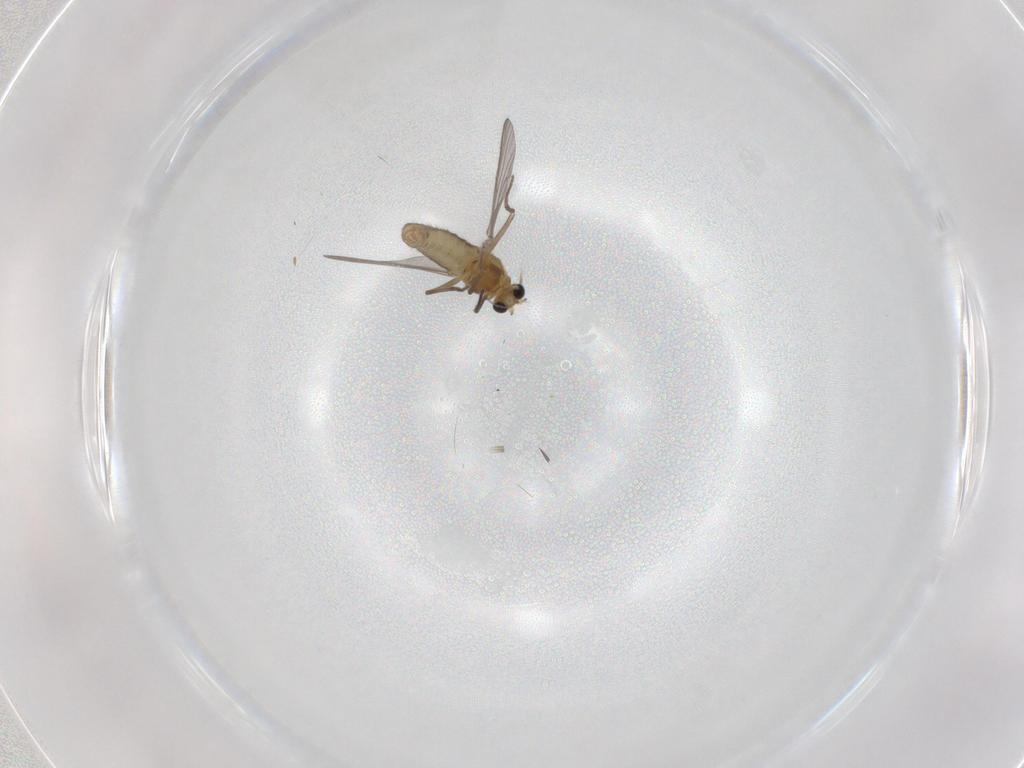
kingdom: Animalia
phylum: Arthropoda
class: Insecta
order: Diptera
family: Chironomidae
